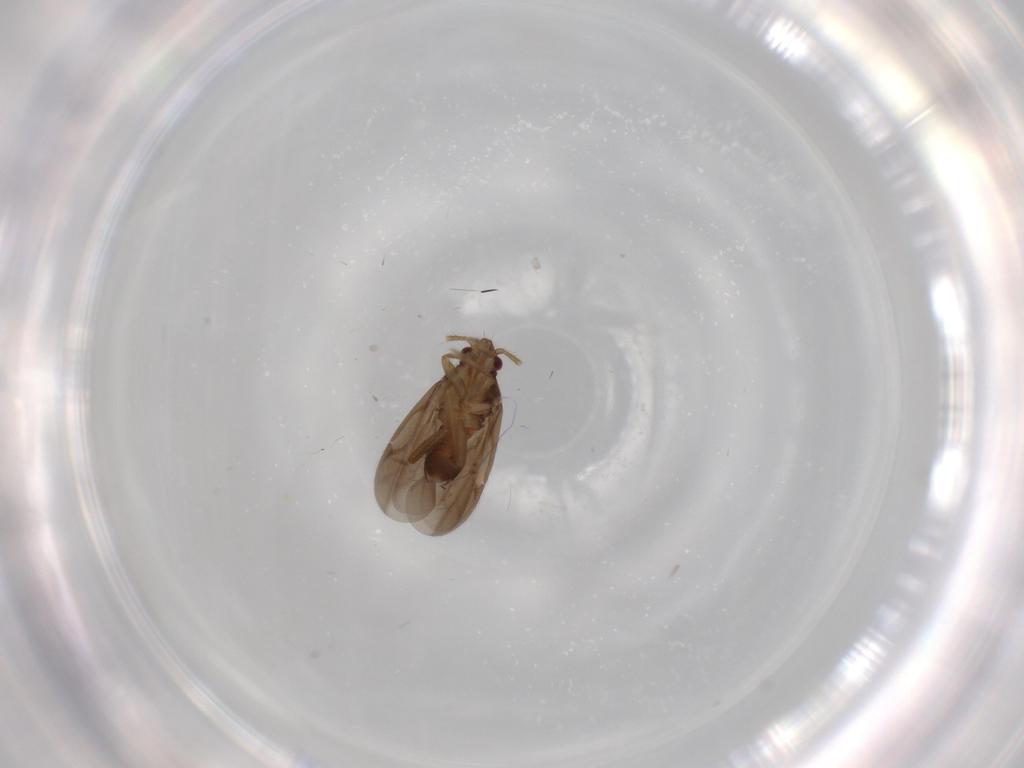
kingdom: Animalia
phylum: Arthropoda
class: Insecta
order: Hemiptera
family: Ceratocombidae
